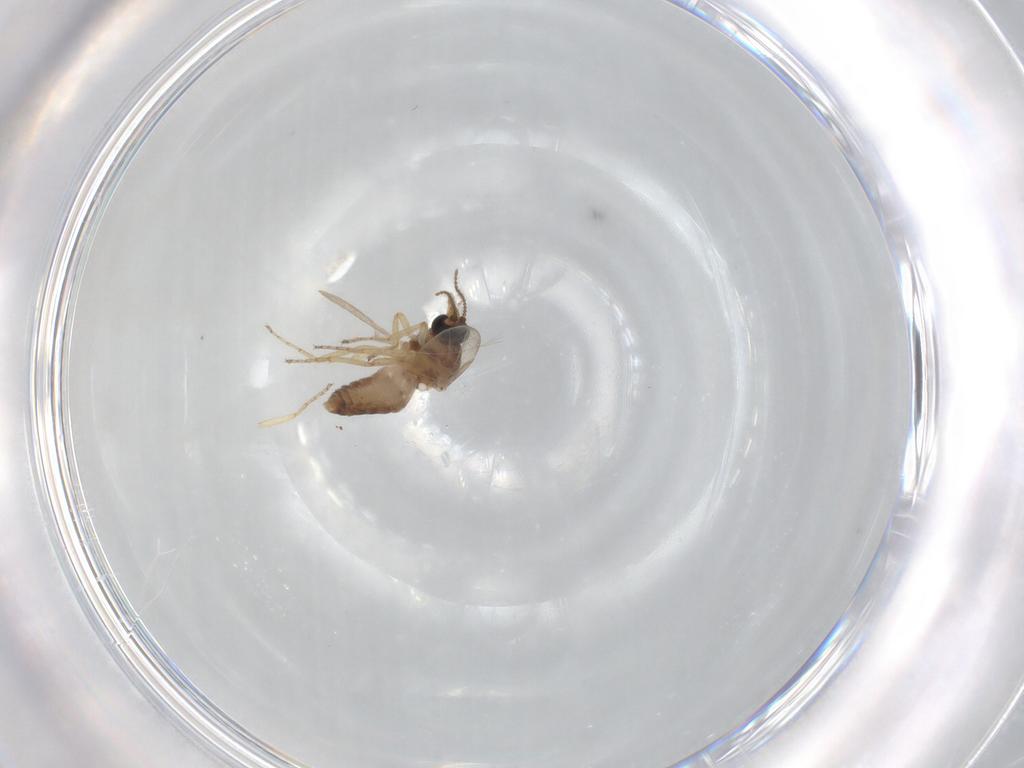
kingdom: Animalia
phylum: Arthropoda
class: Insecta
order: Diptera
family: Ceratopogonidae
